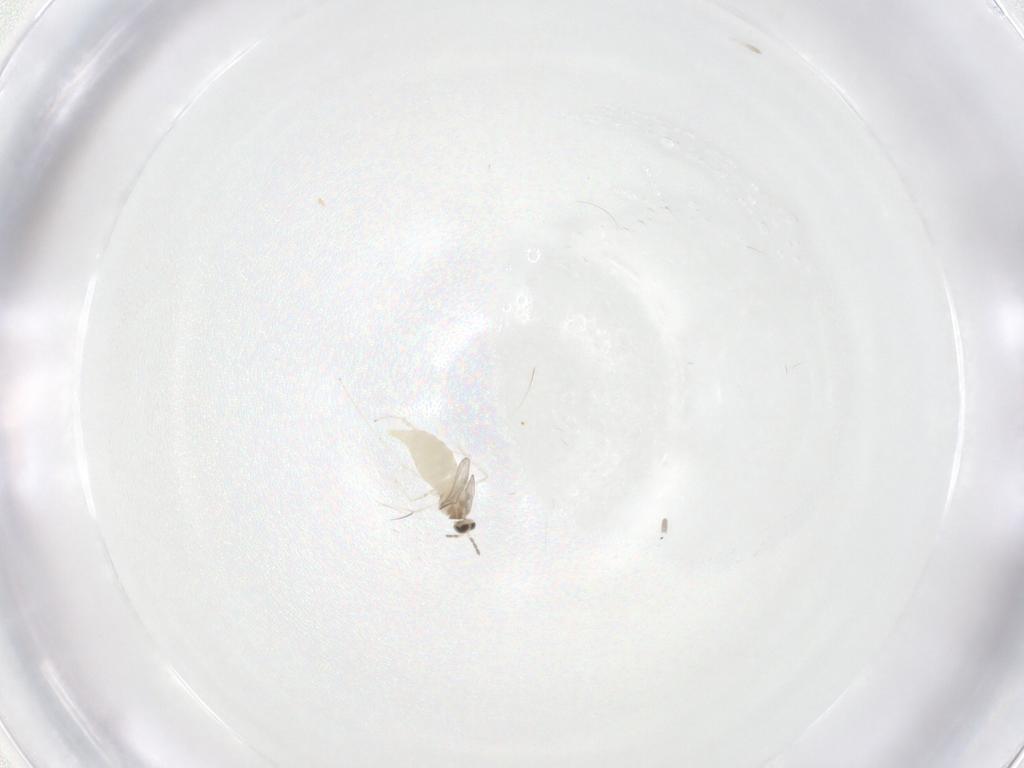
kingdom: Animalia
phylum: Arthropoda
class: Insecta
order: Diptera
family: Cecidomyiidae
